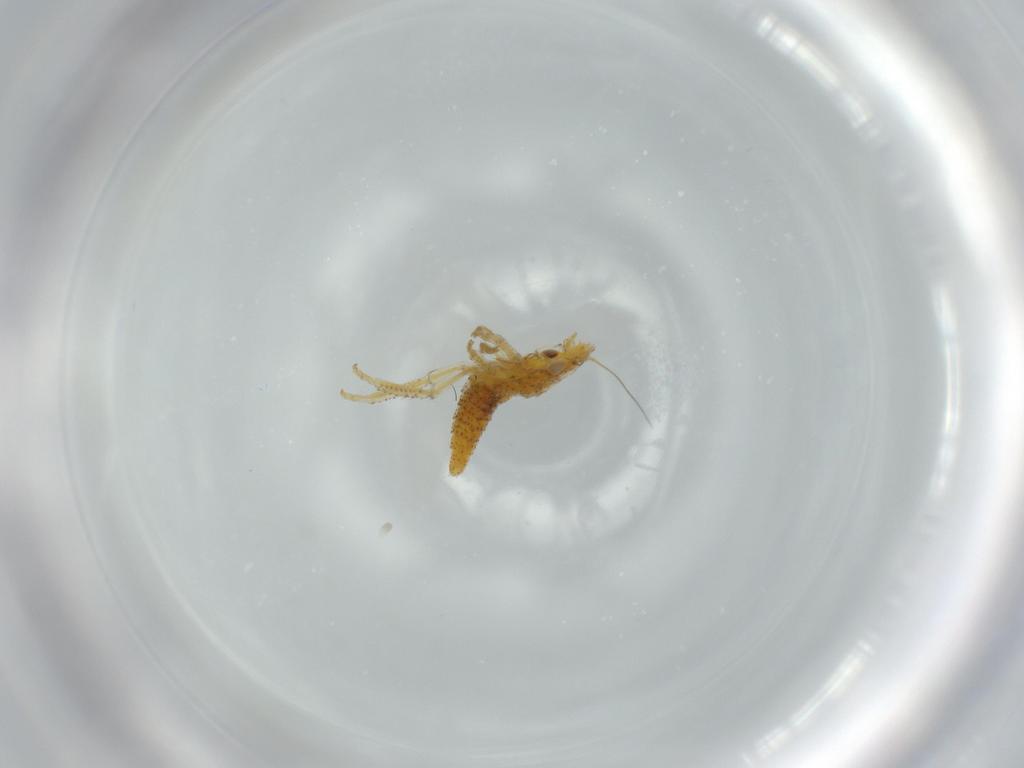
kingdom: Animalia
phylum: Arthropoda
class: Insecta
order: Hemiptera
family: Cicadellidae
